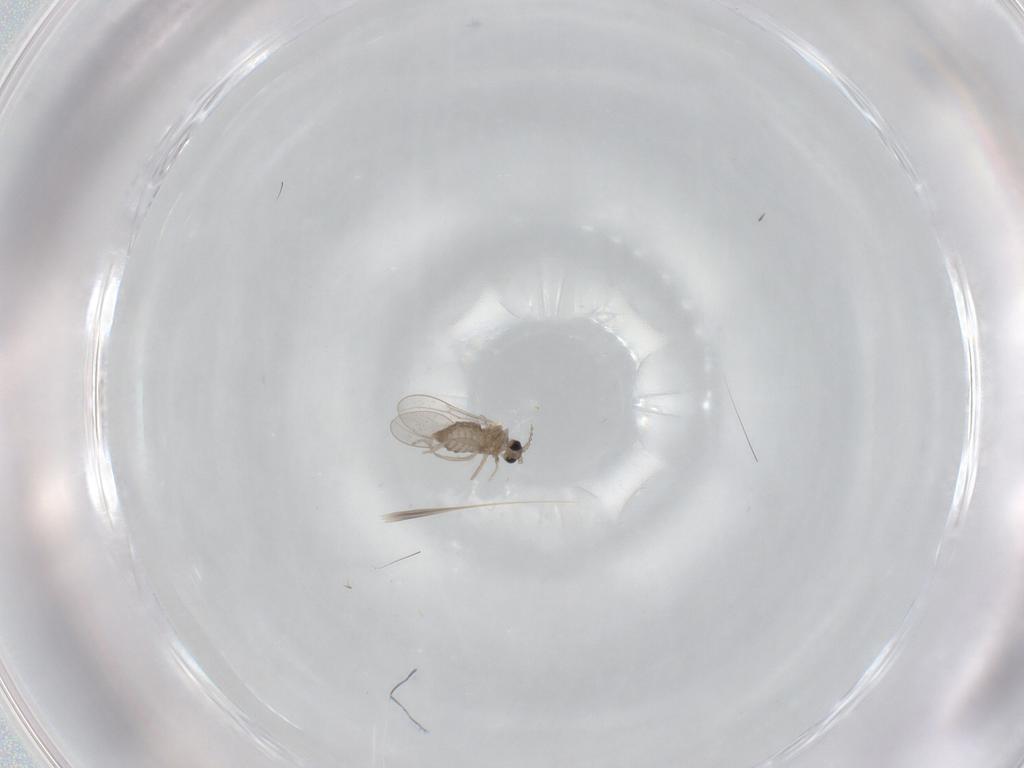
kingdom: Animalia
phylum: Arthropoda
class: Insecta
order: Diptera
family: Cecidomyiidae
